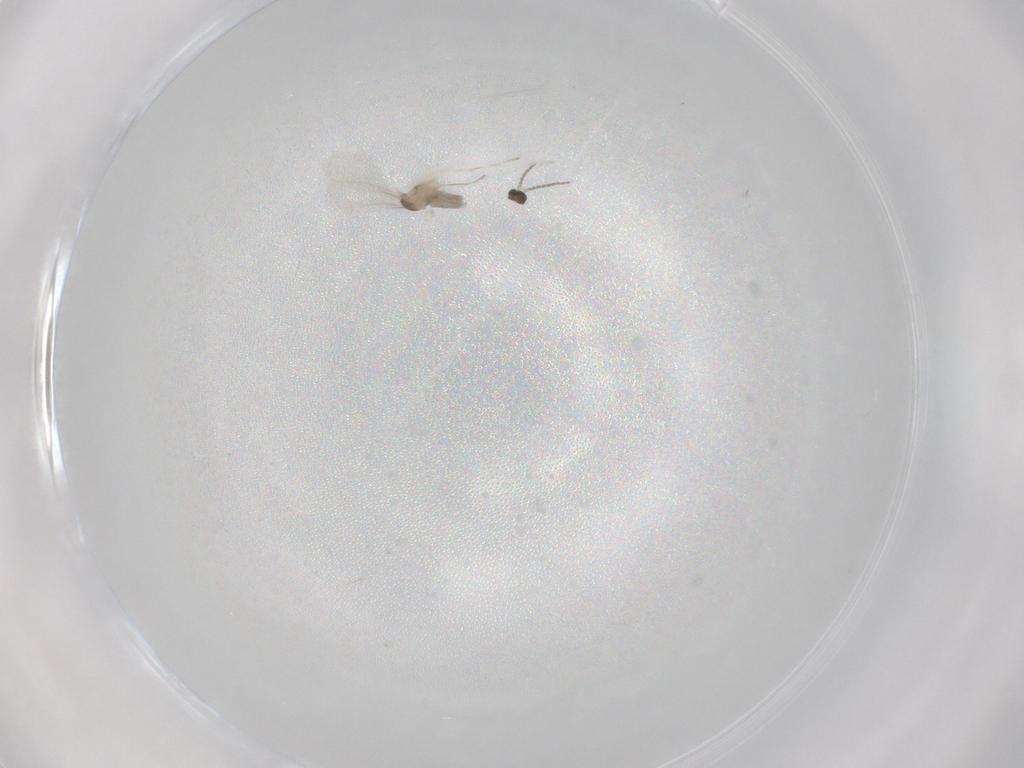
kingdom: Animalia
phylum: Arthropoda
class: Insecta
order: Diptera
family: Cecidomyiidae
